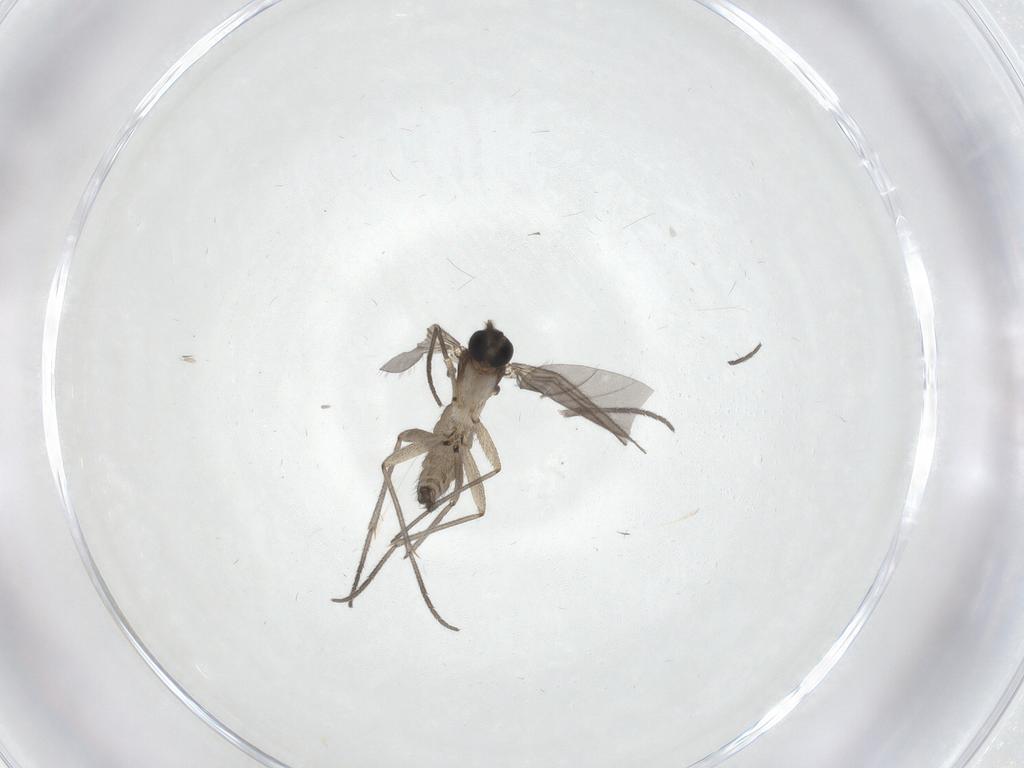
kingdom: Animalia
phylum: Arthropoda
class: Insecta
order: Diptera
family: Sciaridae
